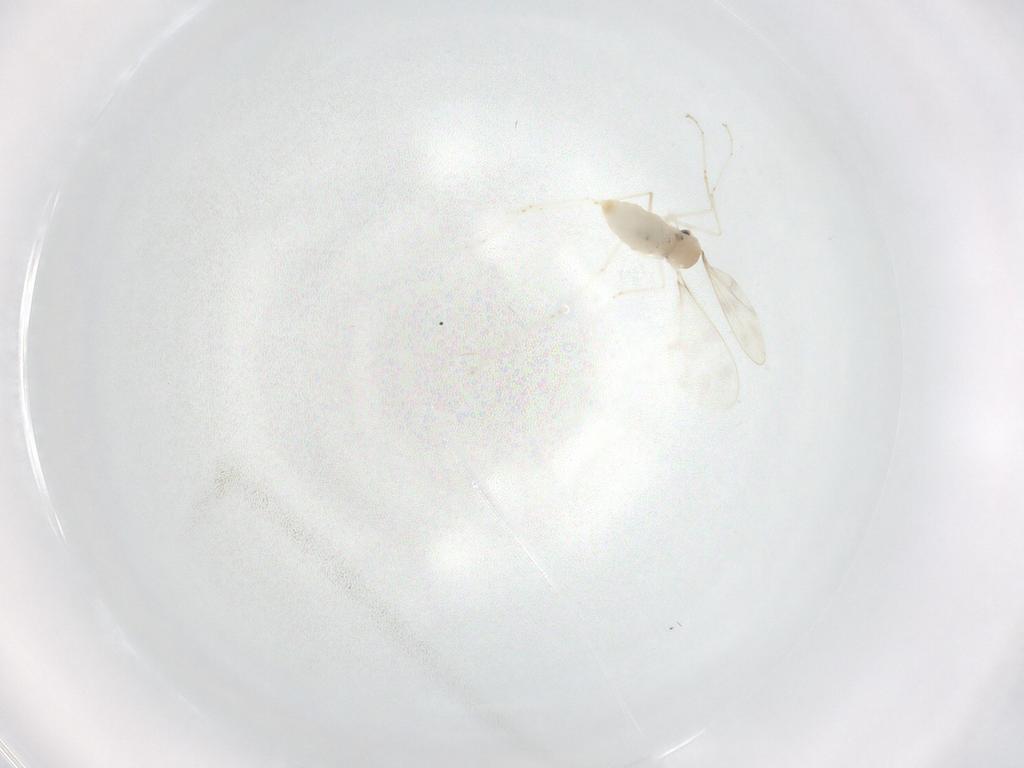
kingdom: Animalia
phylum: Arthropoda
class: Insecta
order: Diptera
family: Cecidomyiidae
